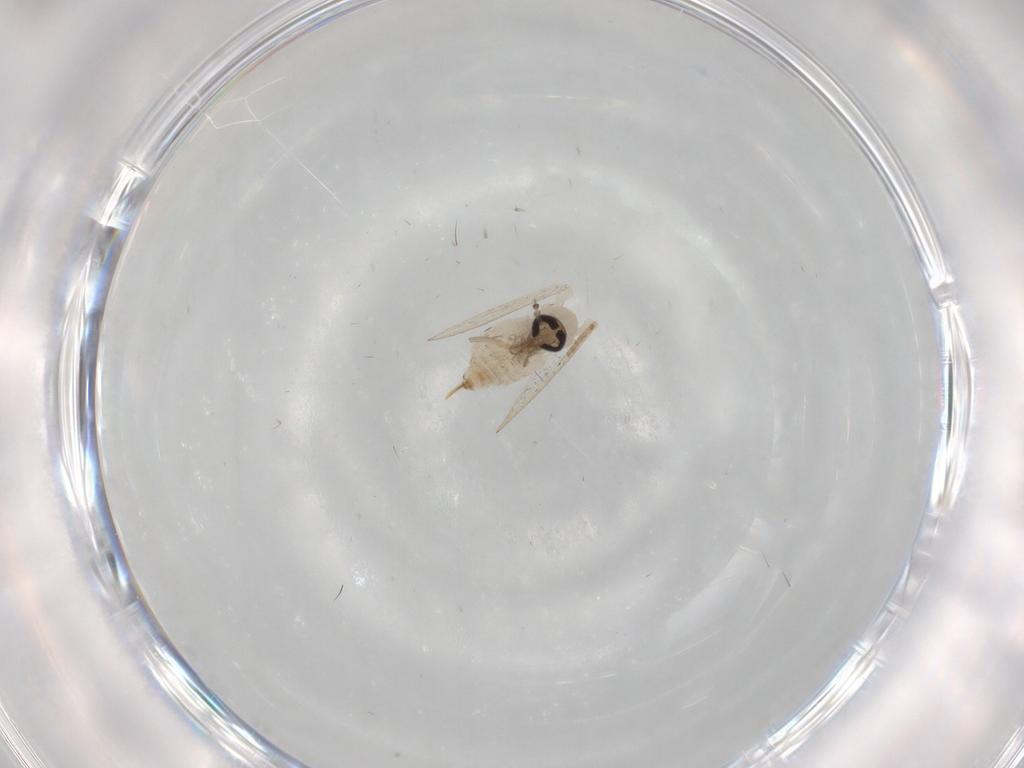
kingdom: Animalia
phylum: Arthropoda
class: Insecta
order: Diptera
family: Psychodidae
